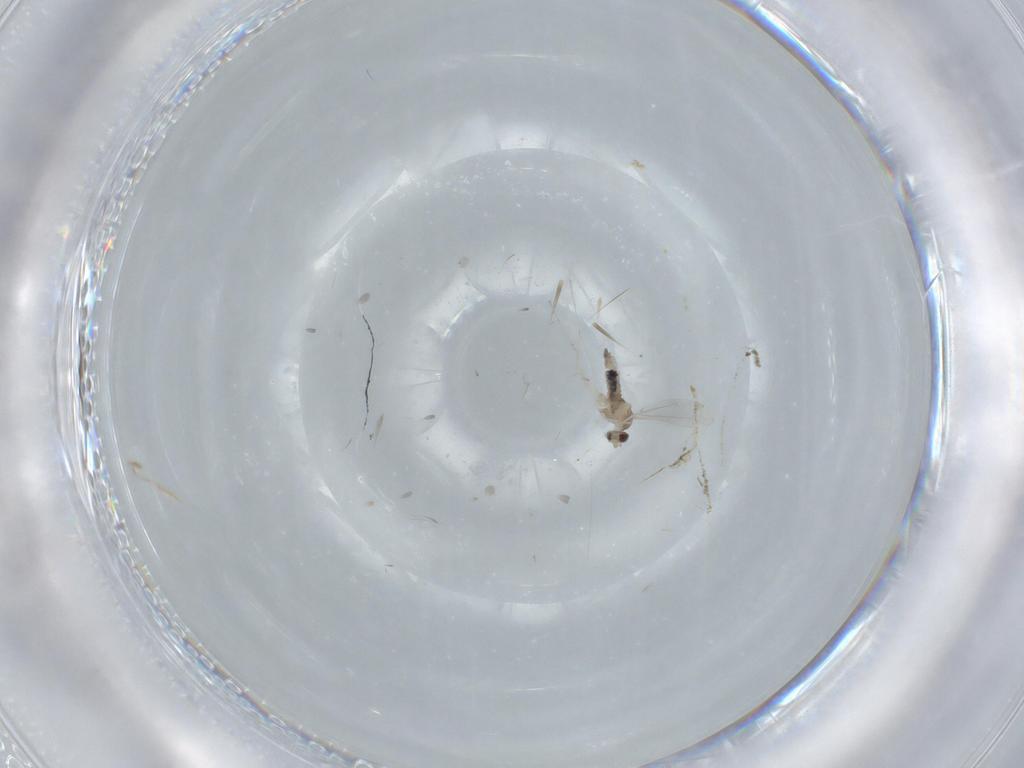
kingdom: Animalia
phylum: Arthropoda
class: Insecta
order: Diptera
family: Cecidomyiidae
